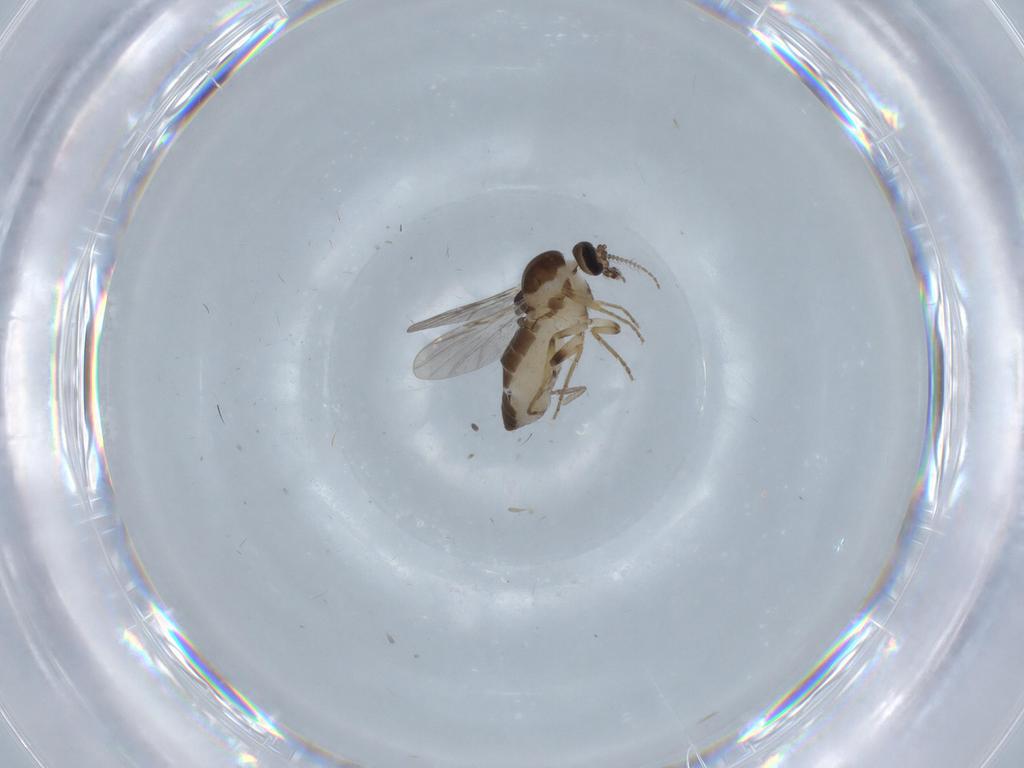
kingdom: Animalia
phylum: Arthropoda
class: Insecta
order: Diptera
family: Ceratopogonidae
